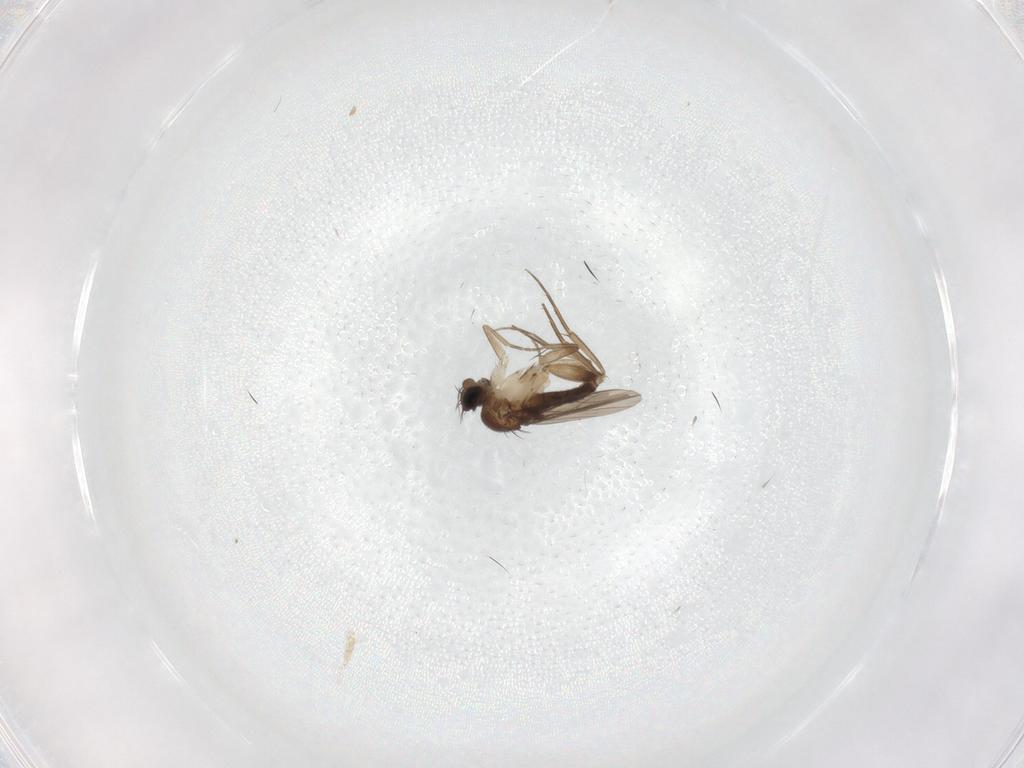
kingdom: Animalia
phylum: Arthropoda
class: Insecta
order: Diptera
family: Phoridae
